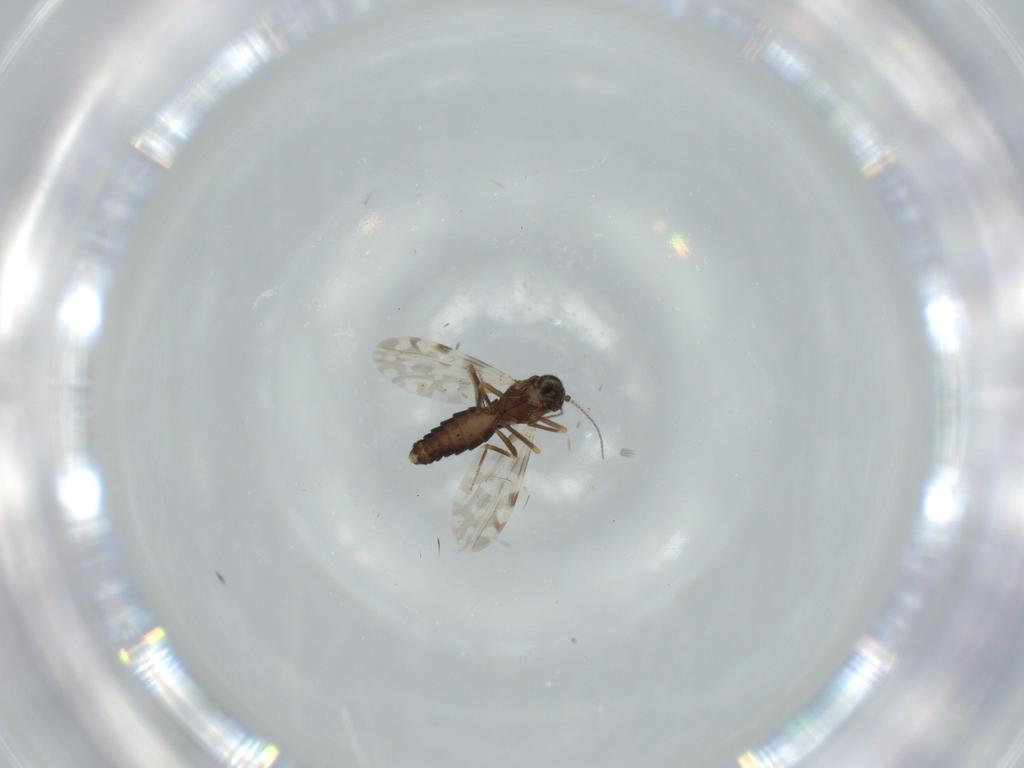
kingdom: Animalia
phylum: Arthropoda
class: Insecta
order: Diptera
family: Ceratopogonidae
